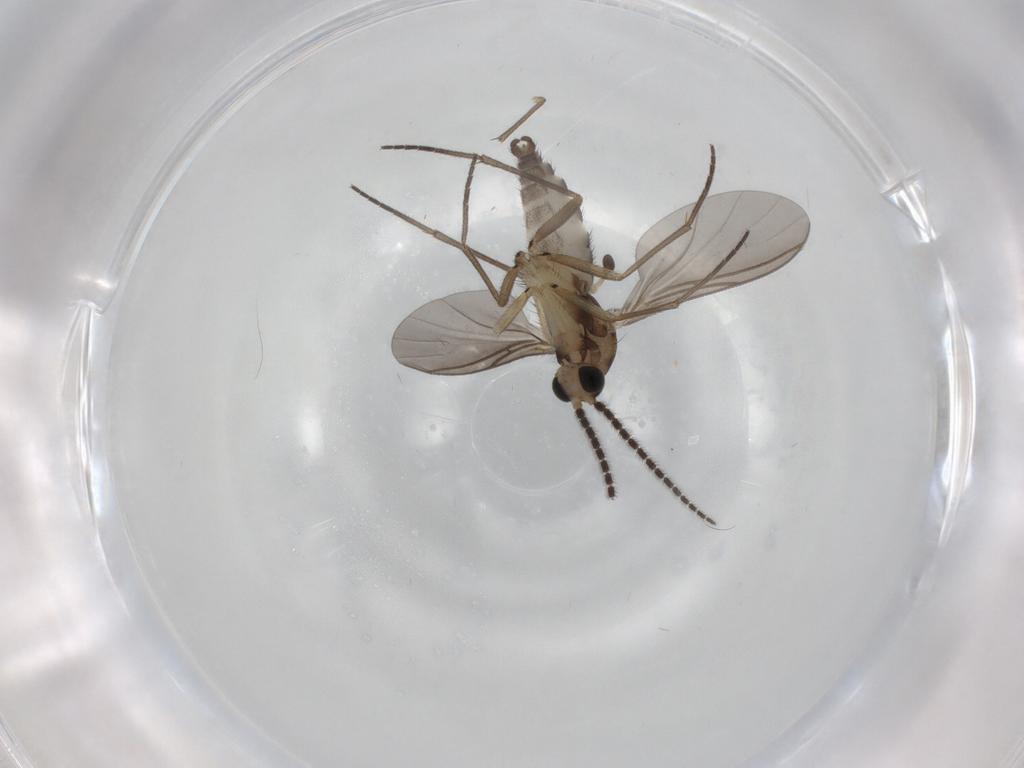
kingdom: Animalia
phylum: Arthropoda
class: Insecta
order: Diptera
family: Sciaridae
